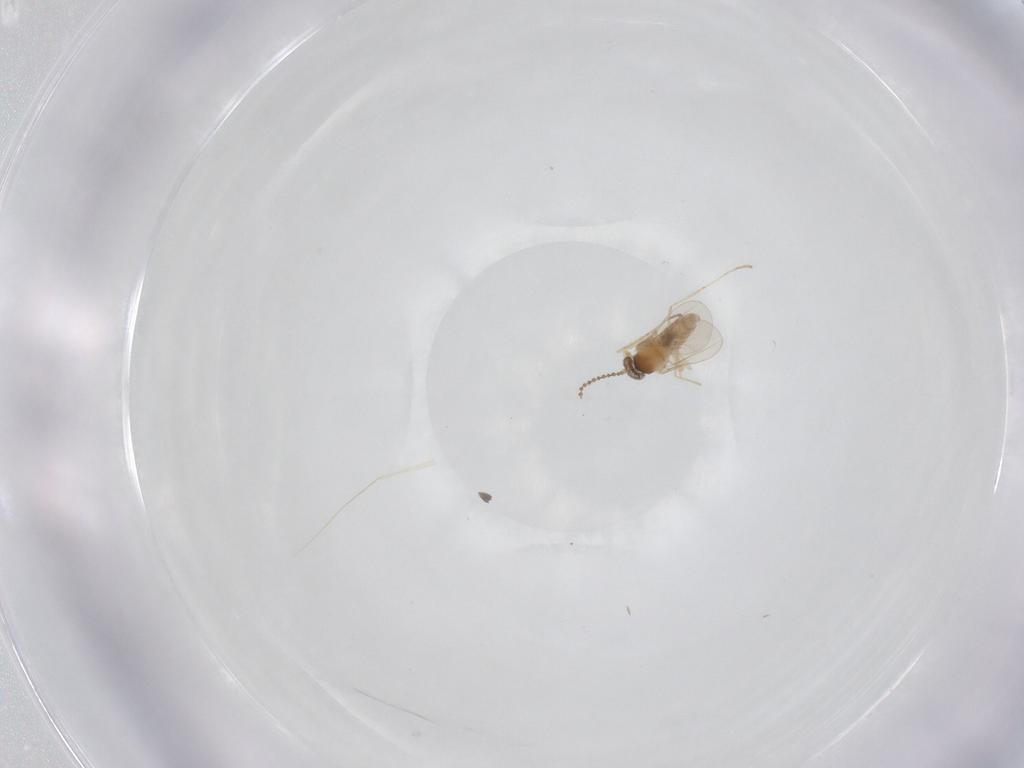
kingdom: Animalia
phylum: Arthropoda
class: Insecta
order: Diptera
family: Cecidomyiidae
